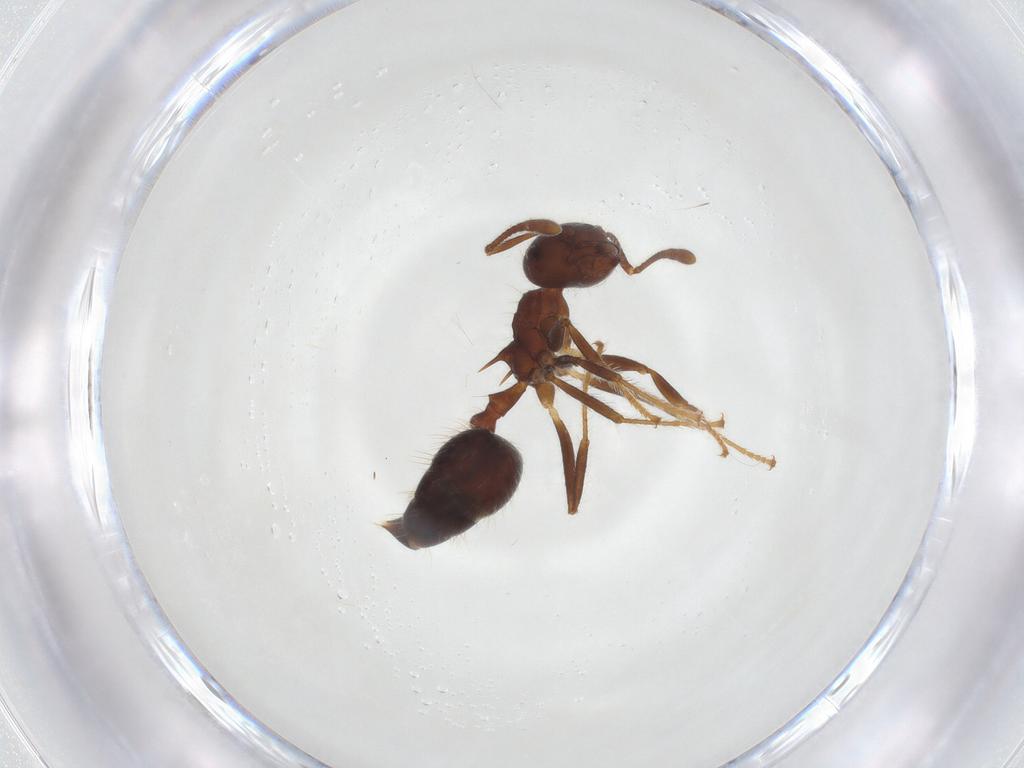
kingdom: Animalia
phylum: Arthropoda
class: Insecta
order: Hymenoptera
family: Formicidae
